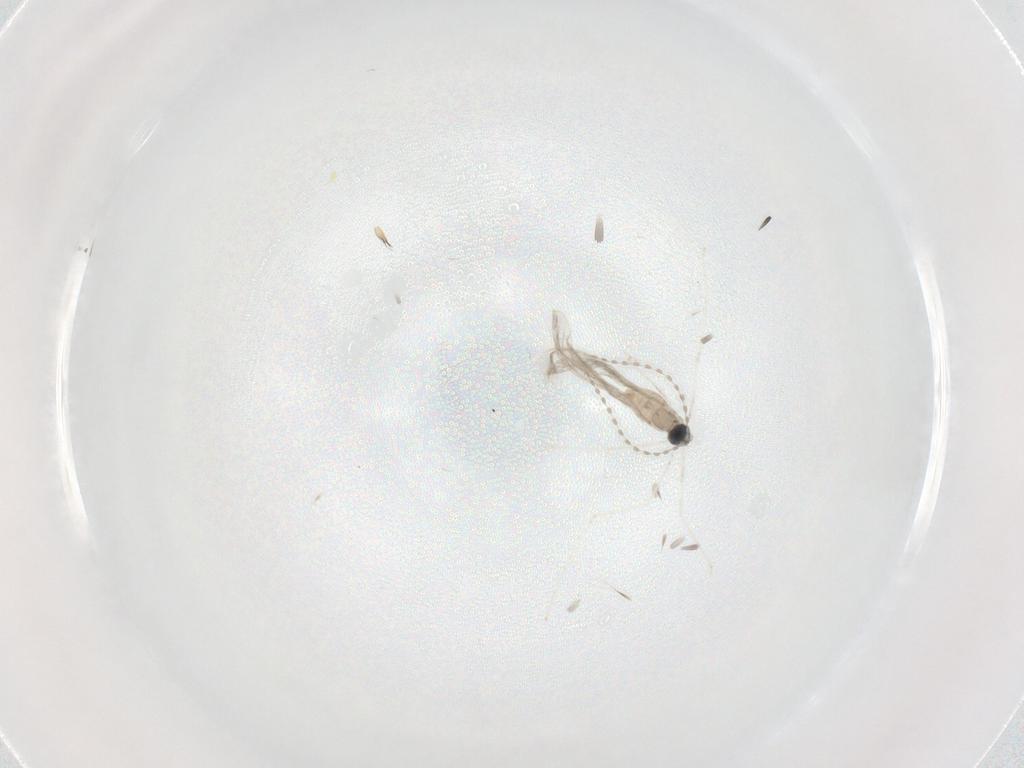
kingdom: Animalia
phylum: Arthropoda
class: Insecta
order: Diptera
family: Cecidomyiidae
